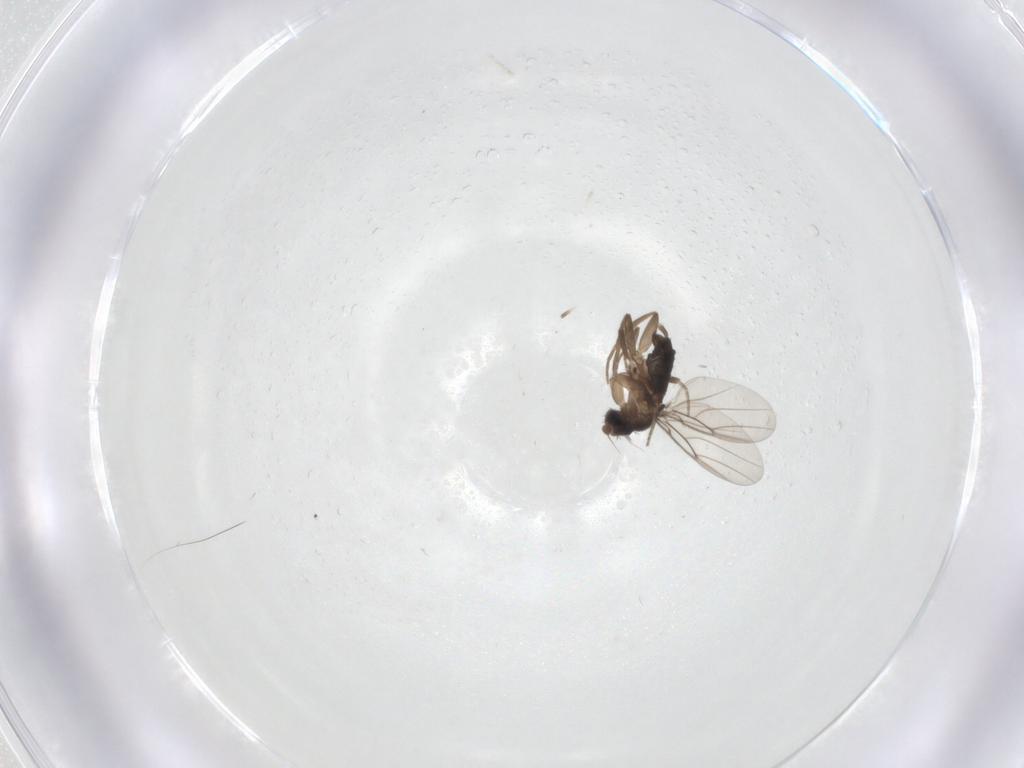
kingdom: Animalia
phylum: Arthropoda
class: Insecta
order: Diptera
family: Phoridae
